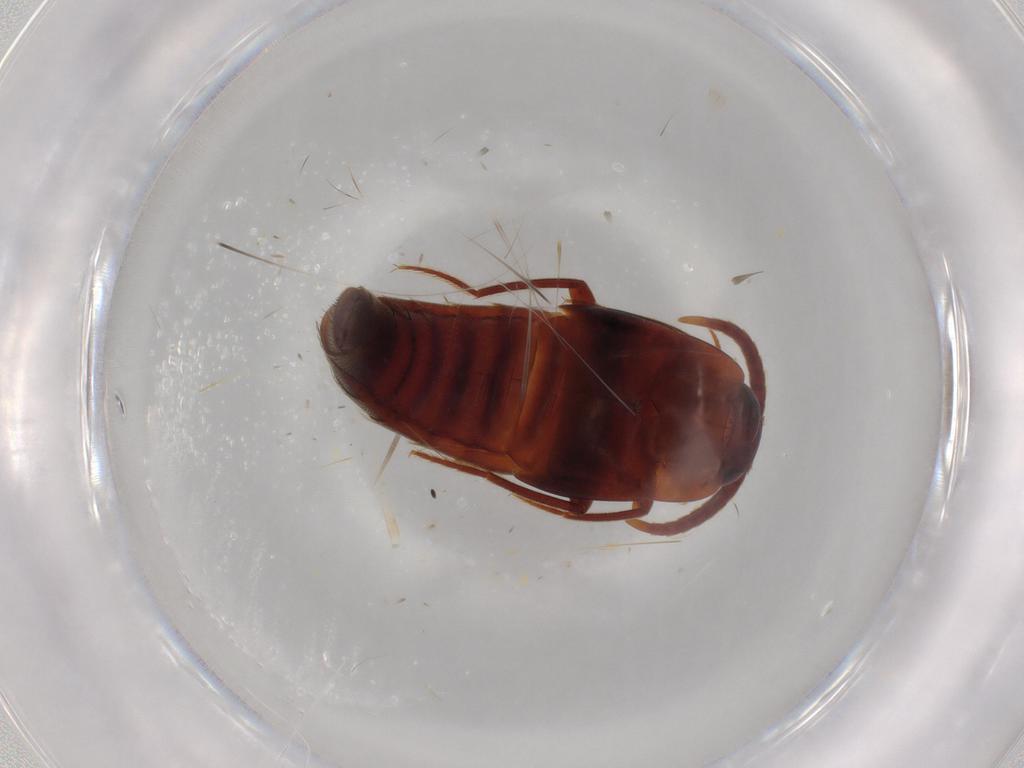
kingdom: Animalia
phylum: Arthropoda
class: Insecta
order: Coleoptera
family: Staphylinidae
